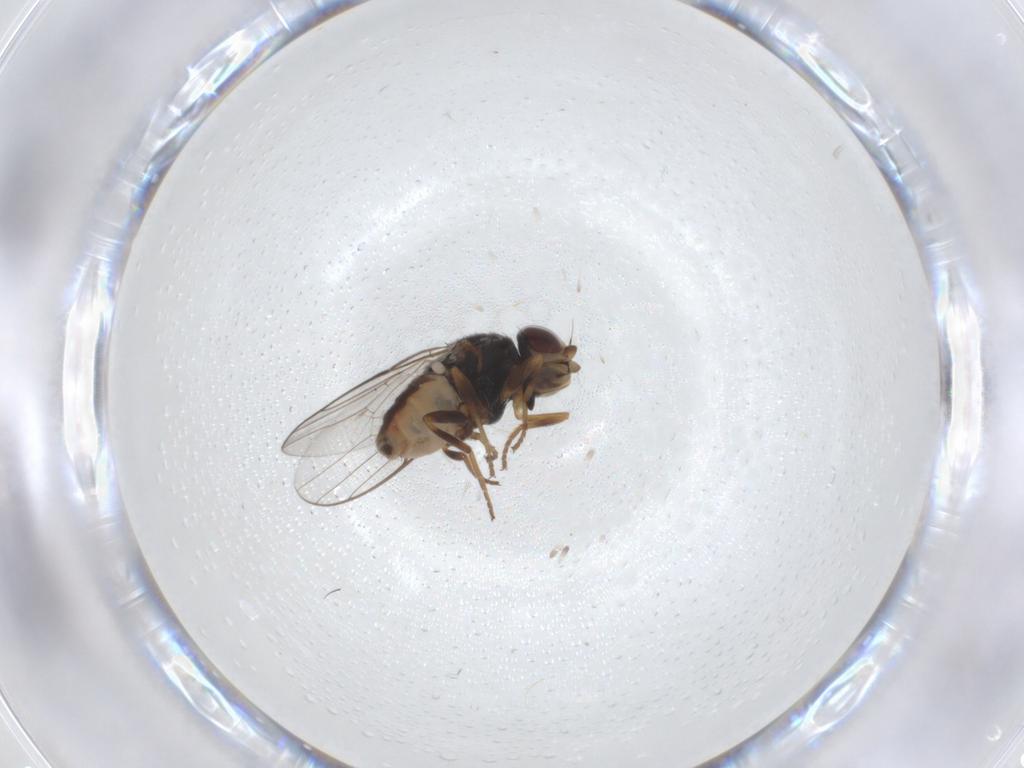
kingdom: Animalia
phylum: Arthropoda
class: Insecta
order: Diptera
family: Chloropidae
